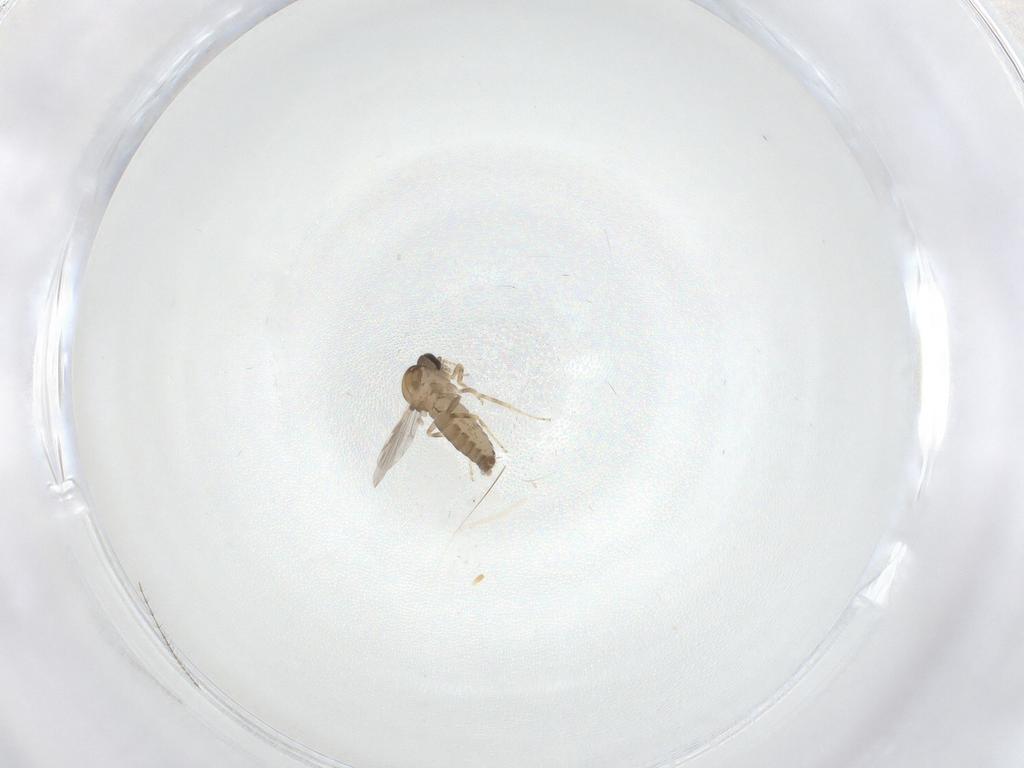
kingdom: Animalia
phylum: Arthropoda
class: Insecta
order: Diptera
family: Ceratopogonidae
